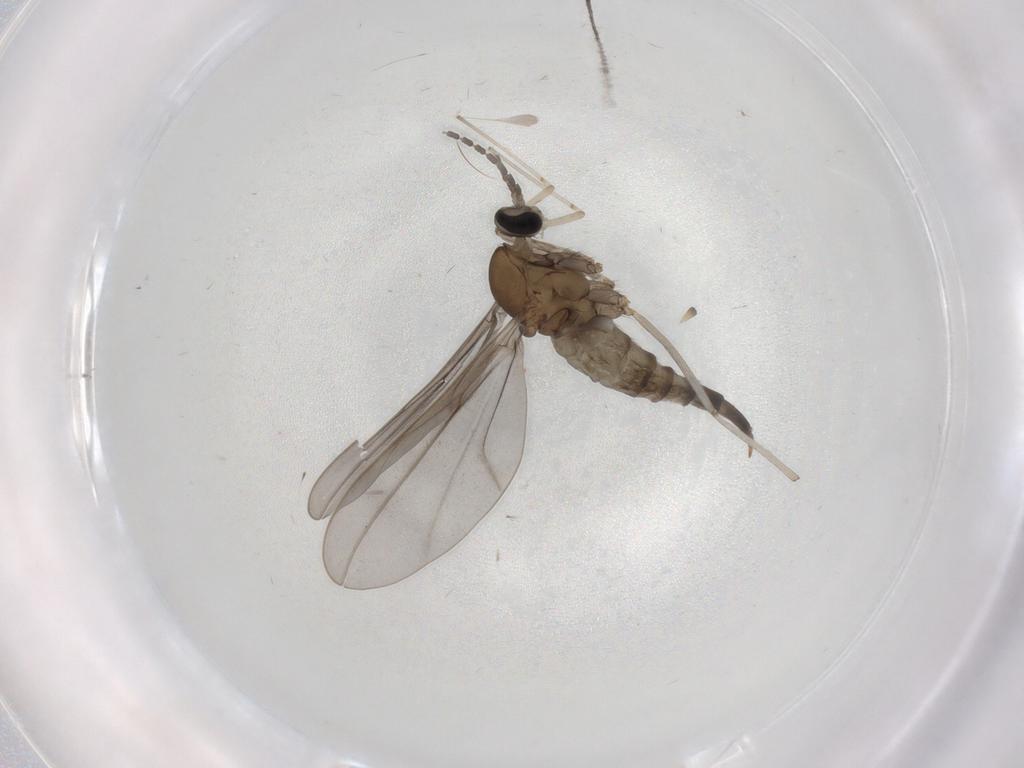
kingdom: Animalia
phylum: Arthropoda
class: Insecta
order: Diptera
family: Cecidomyiidae
